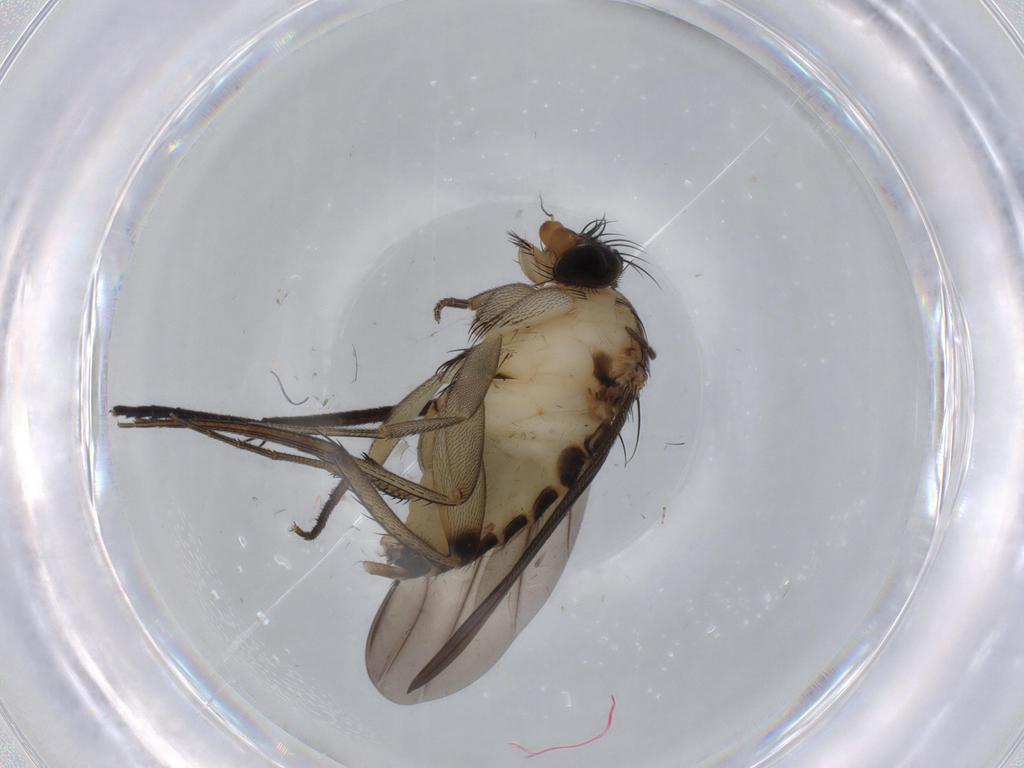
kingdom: Animalia
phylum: Arthropoda
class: Insecta
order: Diptera
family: Phoridae
